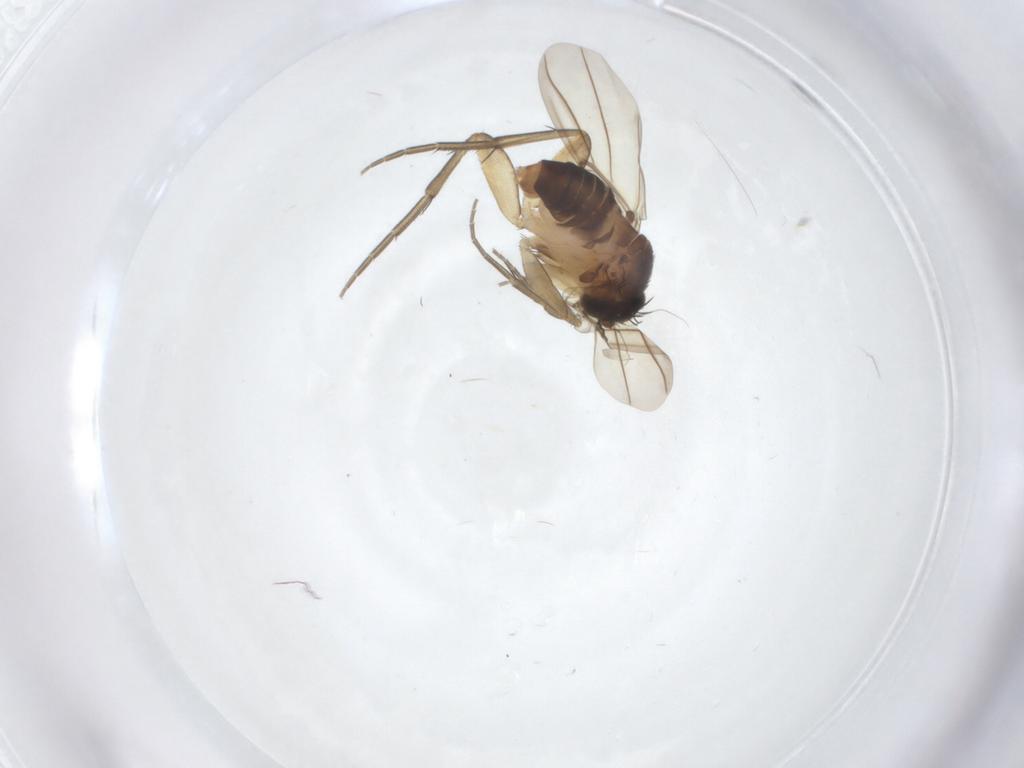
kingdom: Animalia
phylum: Arthropoda
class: Insecta
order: Diptera
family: Phoridae
